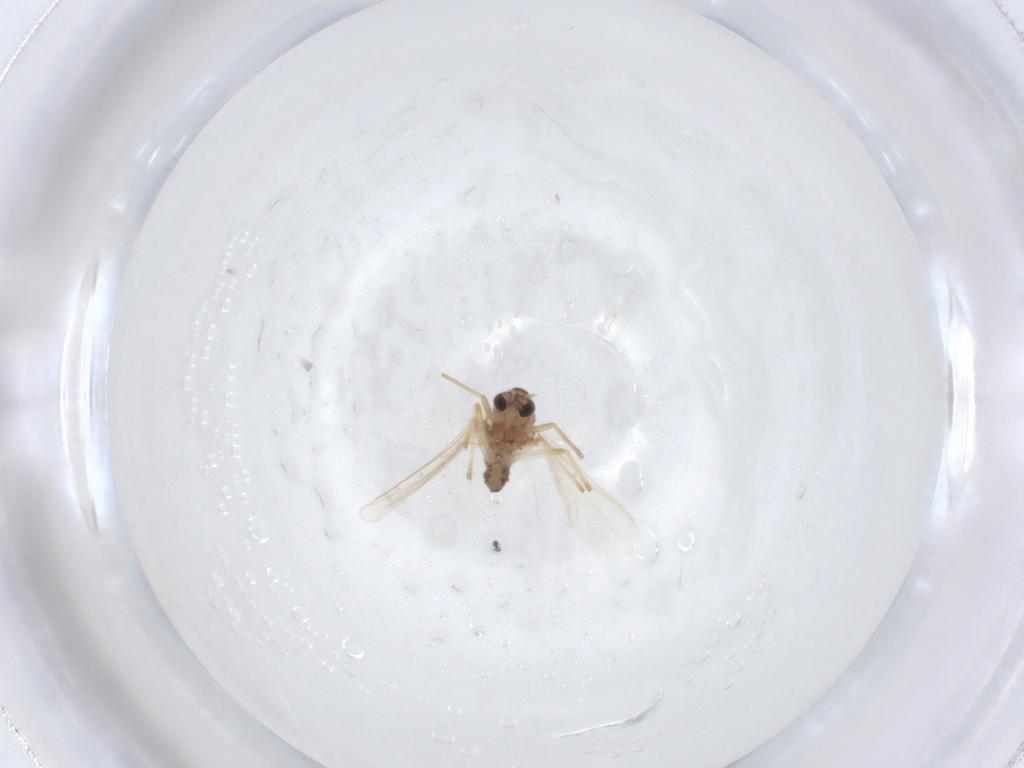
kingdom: Animalia
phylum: Arthropoda
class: Insecta
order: Diptera
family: Chironomidae
